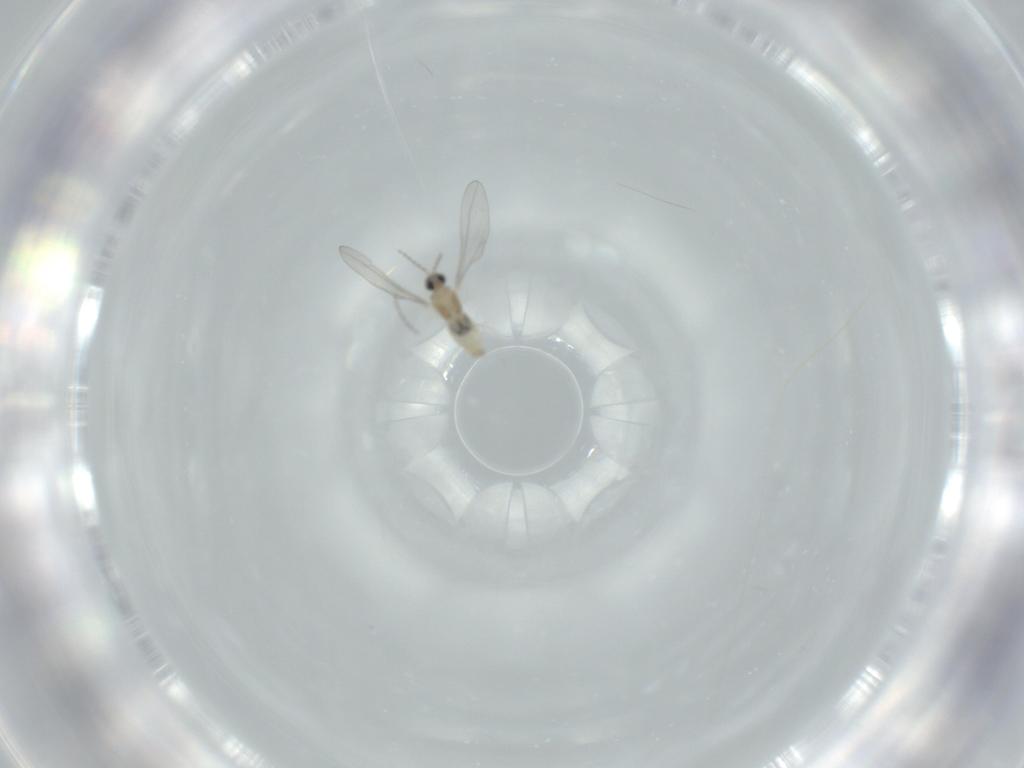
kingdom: Animalia
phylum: Arthropoda
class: Insecta
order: Diptera
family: Cecidomyiidae
